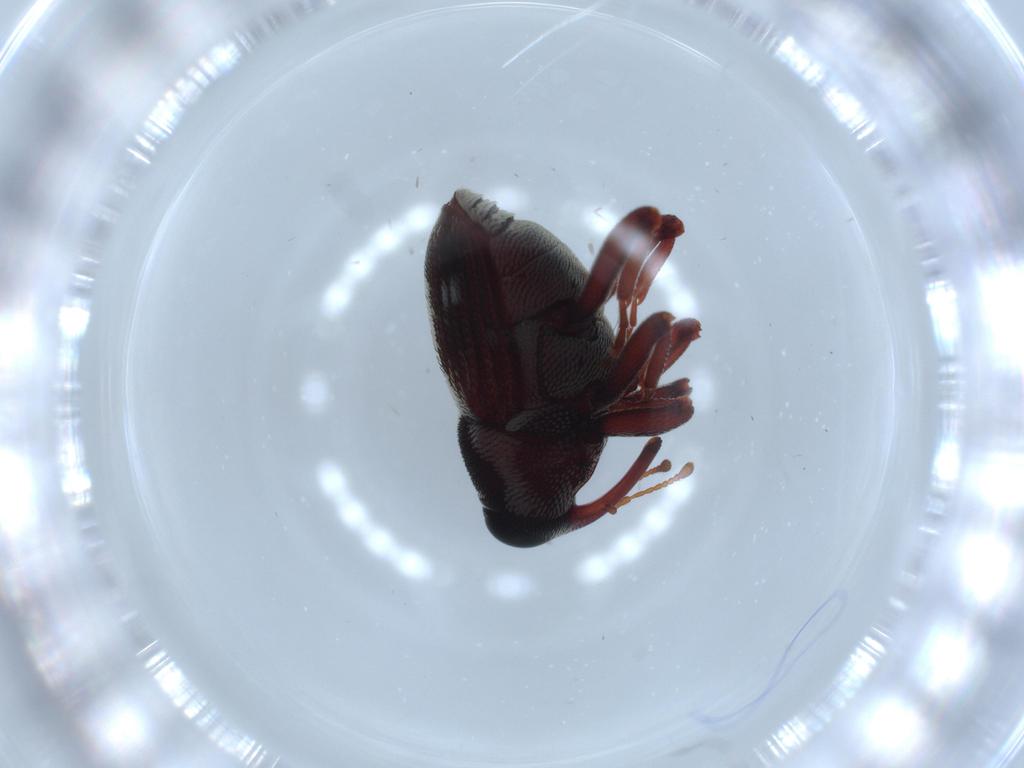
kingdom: Animalia
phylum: Arthropoda
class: Insecta
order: Coleoptera
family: Curculionidae
